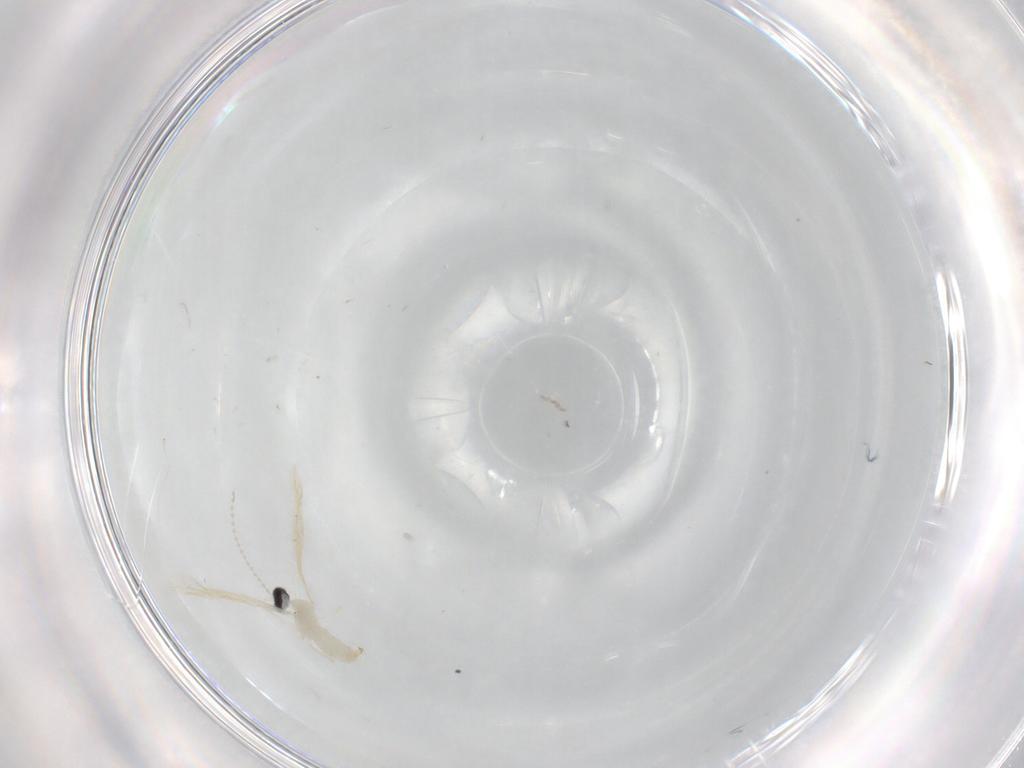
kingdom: Animalia
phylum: Arthropoda
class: Insecta
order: Diptera
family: Cecidomyiidae
